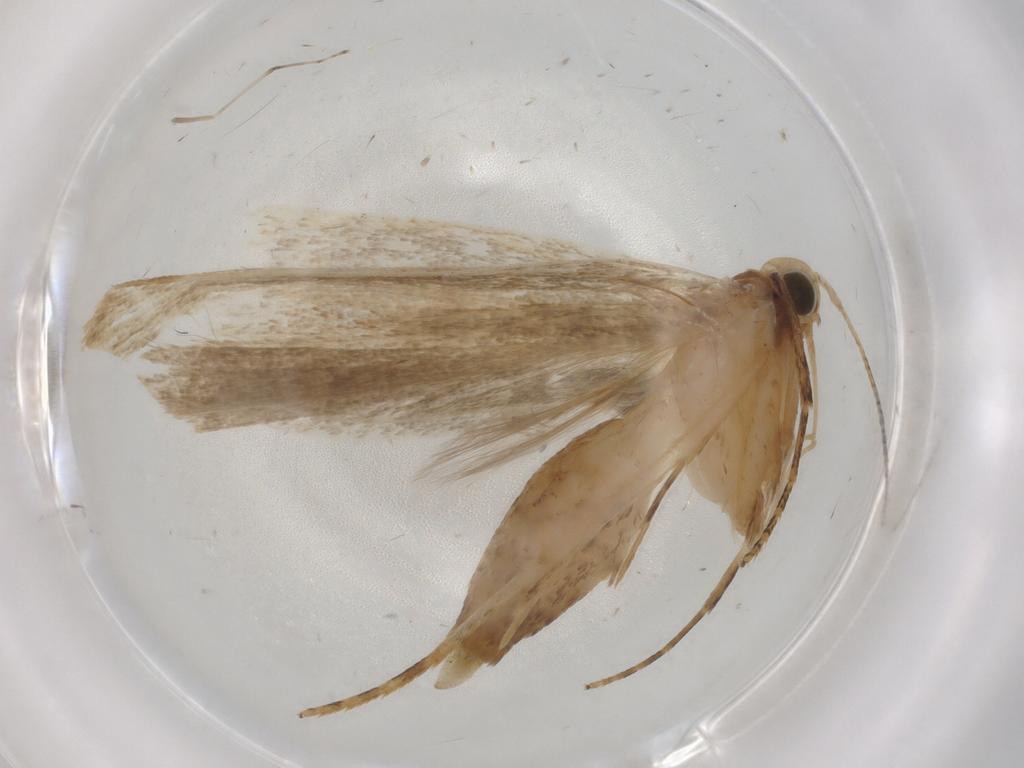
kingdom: Animalia
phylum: Arthropoda
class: Insecta
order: Lepidoptera
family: Gelechiidae
